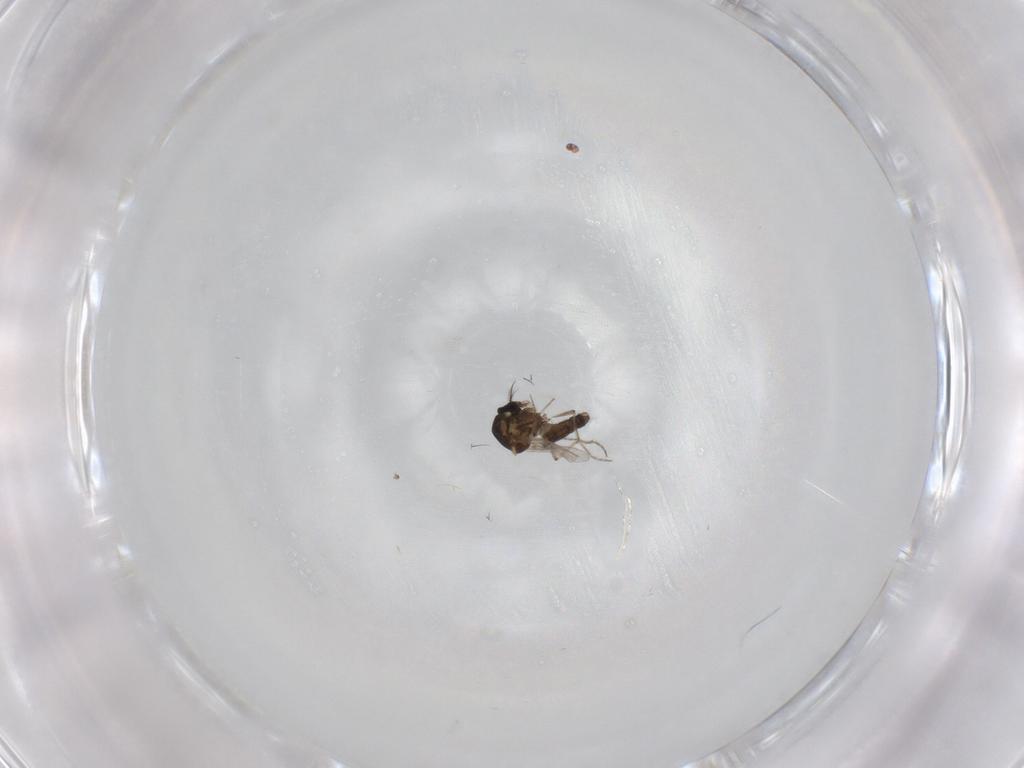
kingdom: Animalia
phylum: Arthropoda
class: Insecta
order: Diptera
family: Ceratopogonidae
